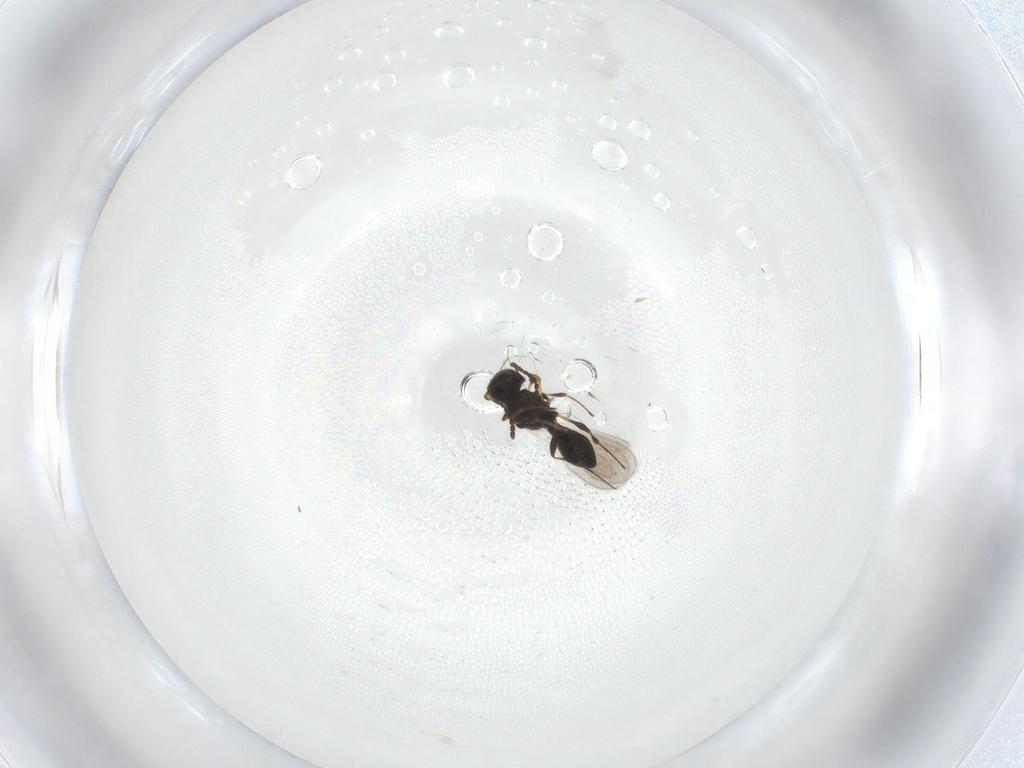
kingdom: Animalia
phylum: Arthropoda
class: Insecta
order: Hymenoptera
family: Platygastridae
